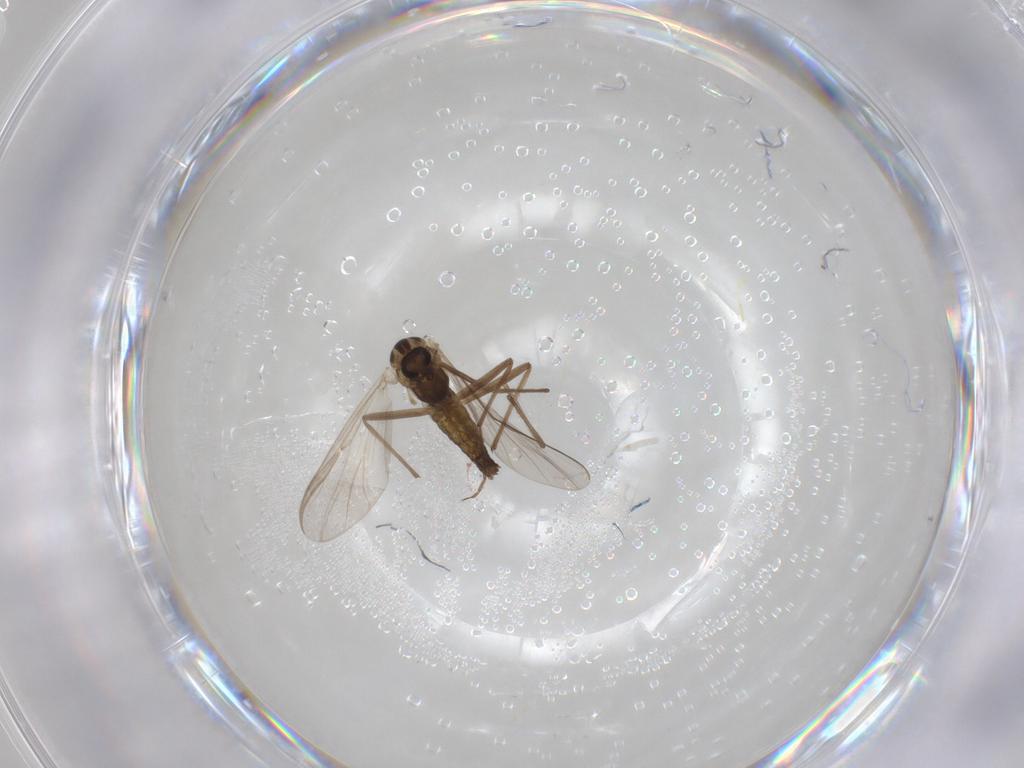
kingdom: Animalia
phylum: Arthropoda
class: Insecta
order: Diptera
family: Chironomidae
